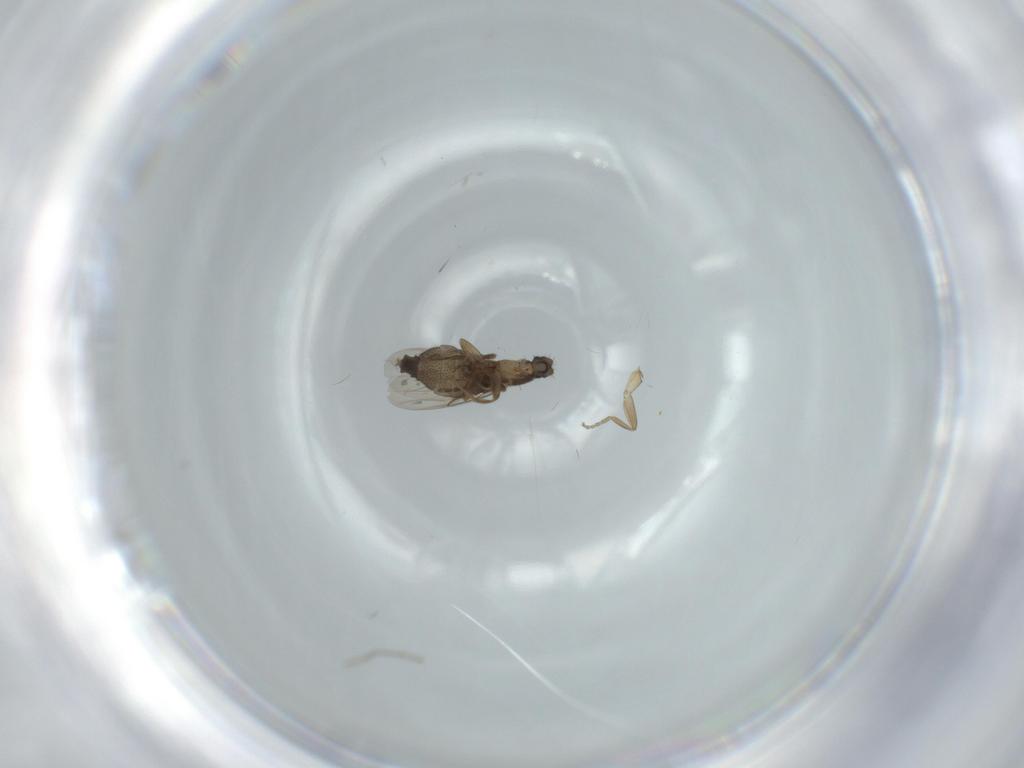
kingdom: Animalia
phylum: Arthropoda
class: Insecta
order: Diptera
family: Phoridae
